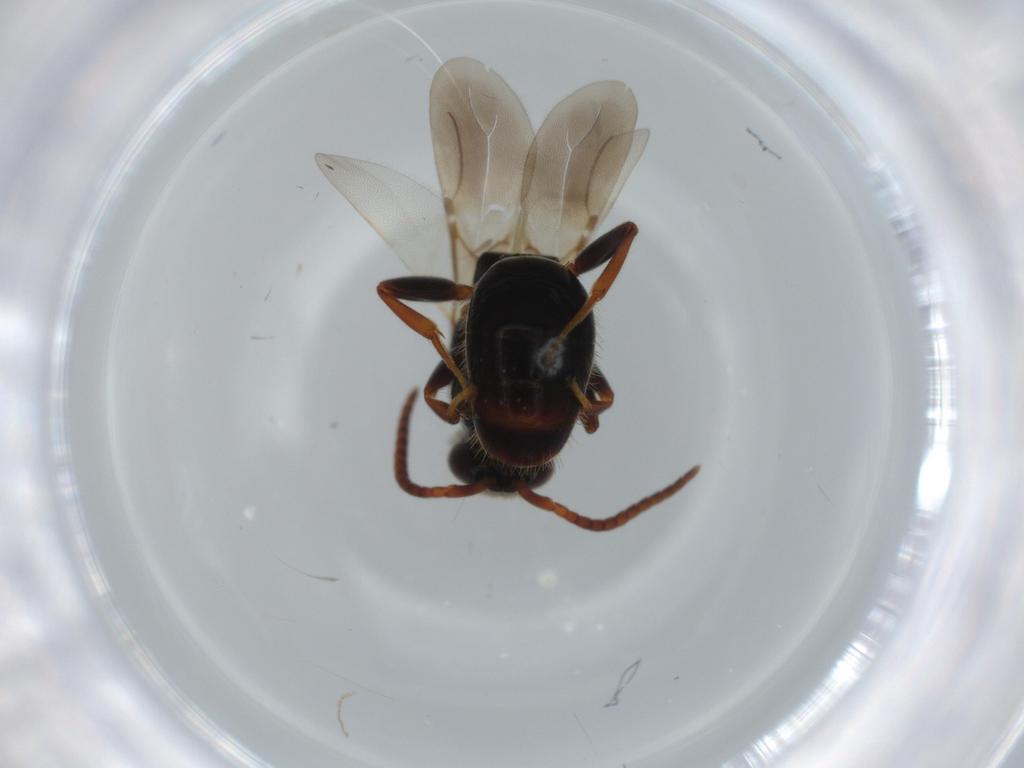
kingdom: Animalia
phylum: Arthropoda
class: Insecta
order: Hymenoptera
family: Bethylidae
